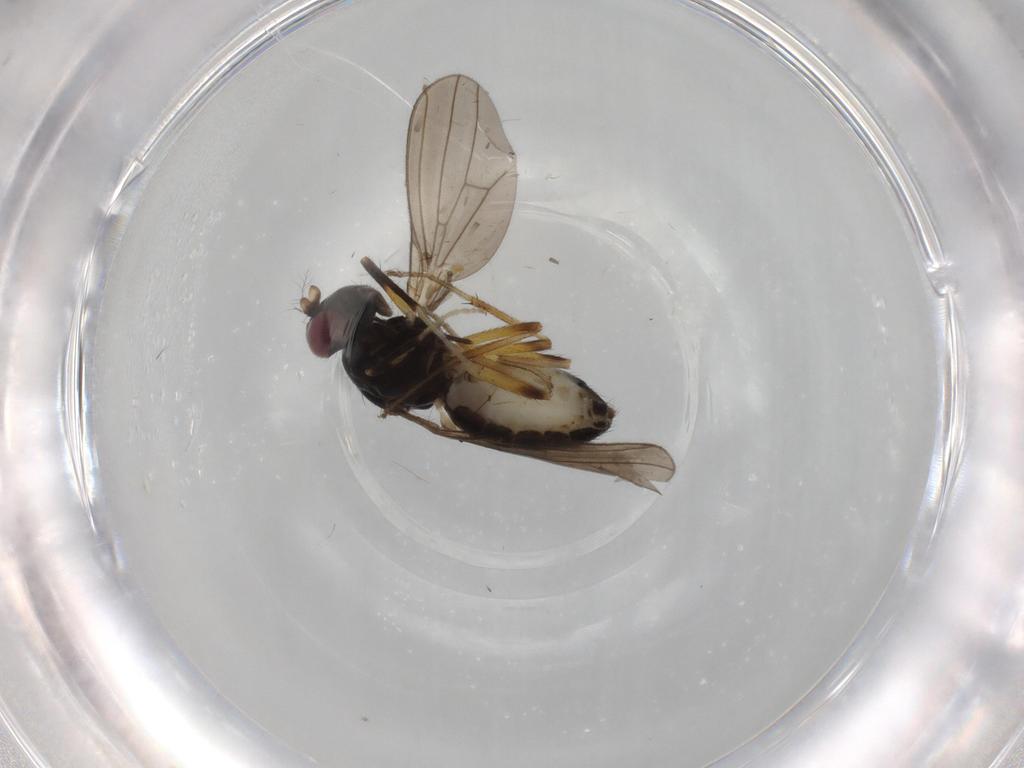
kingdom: Animalia
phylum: Arthropoda
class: Insecta
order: Diptera
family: Lauxaniidae
